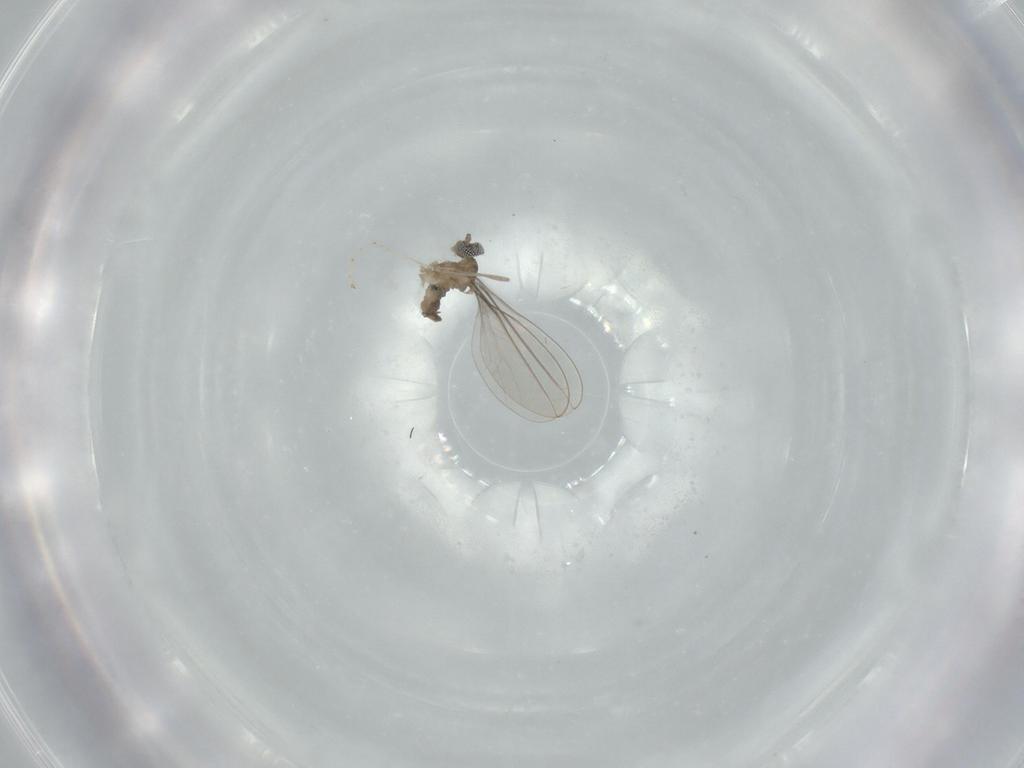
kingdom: Animalia
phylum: Arthropoda
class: Insecta
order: Diptera
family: Cecidomyiidae
